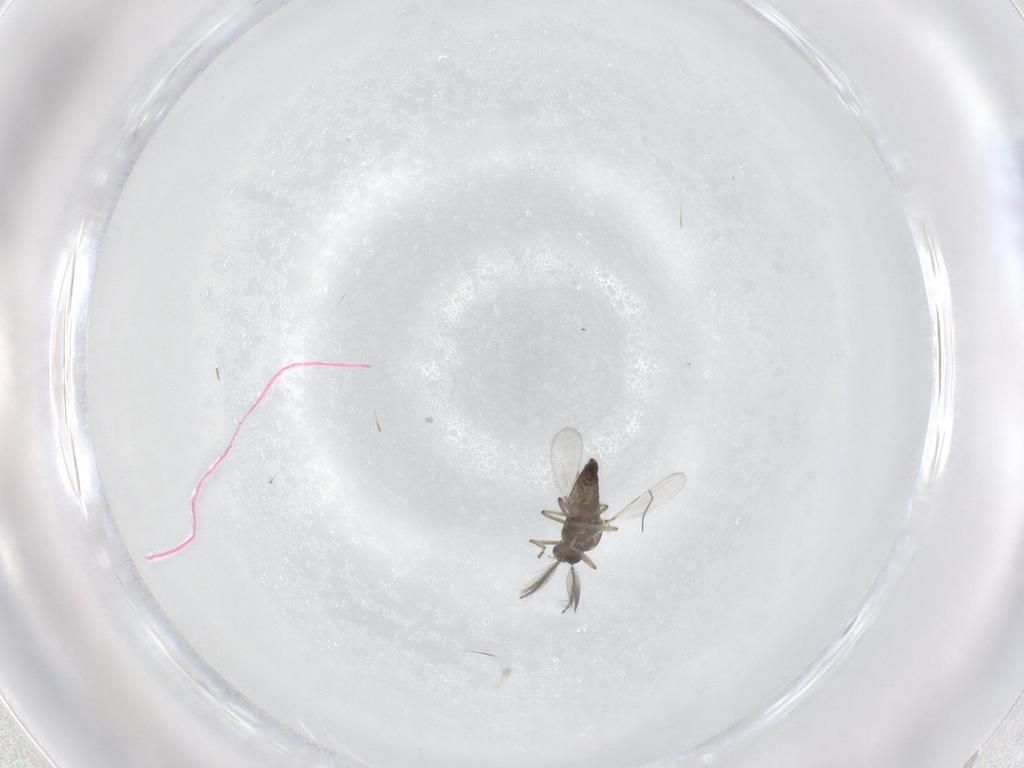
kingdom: Animalia
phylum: Arthropoda
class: Insecta
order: Diptera
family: Ceratopogonidae
